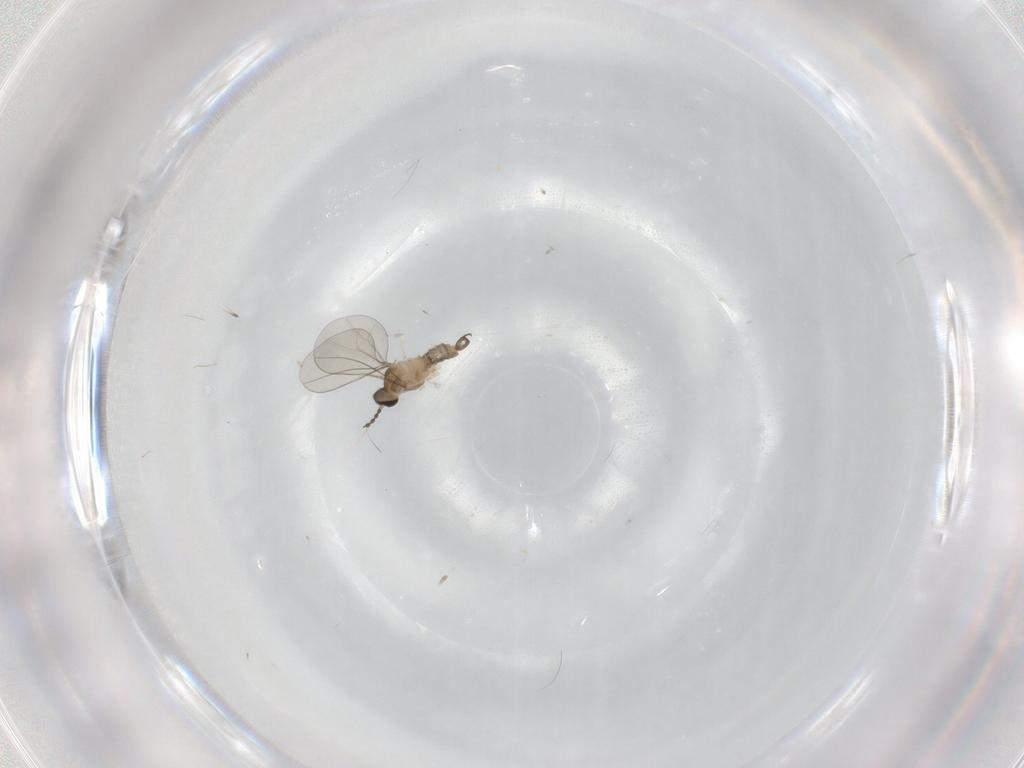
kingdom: Animalia
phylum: Arthropoda
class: Insecta
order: Diptera
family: Cecidomyiidae
